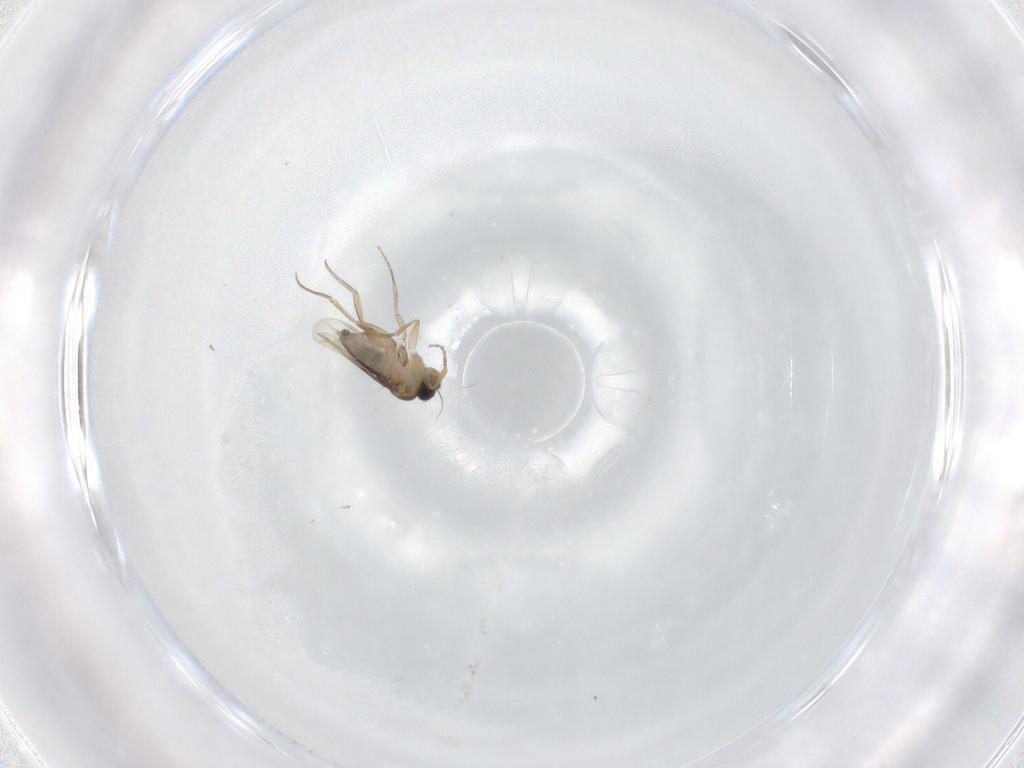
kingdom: Animalia
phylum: Arthropoda
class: Insecta
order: Diptera
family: Phoridae
